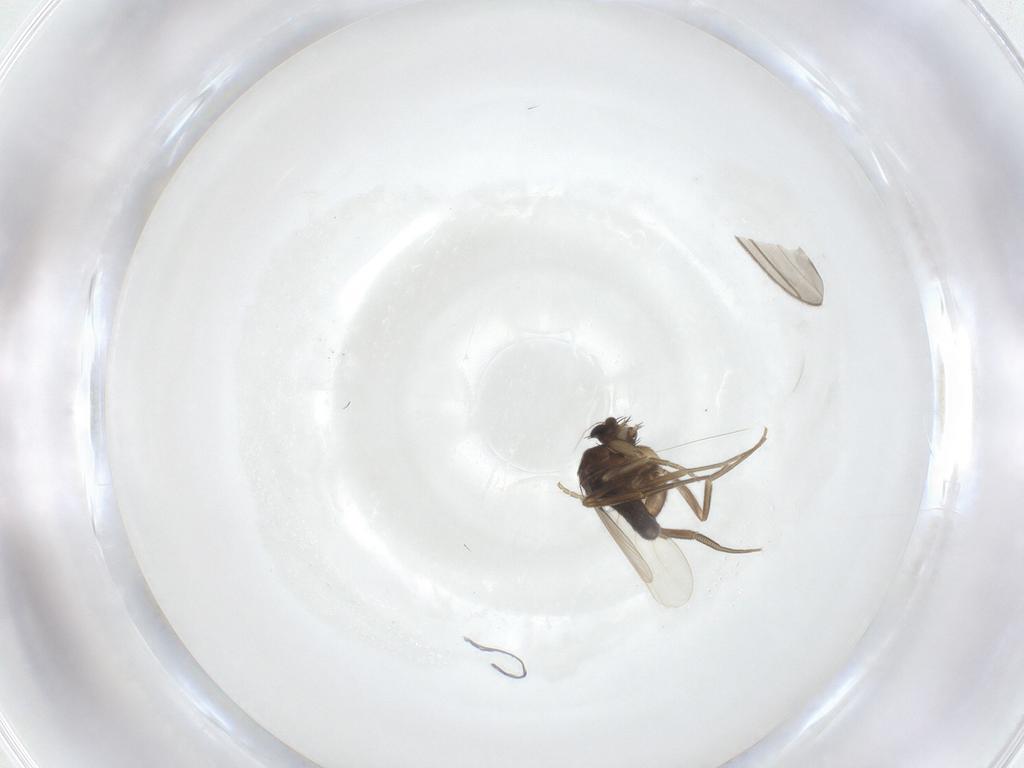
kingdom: Animalia
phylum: Arthropoda
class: Insecta
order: Diptera
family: Phoridae
